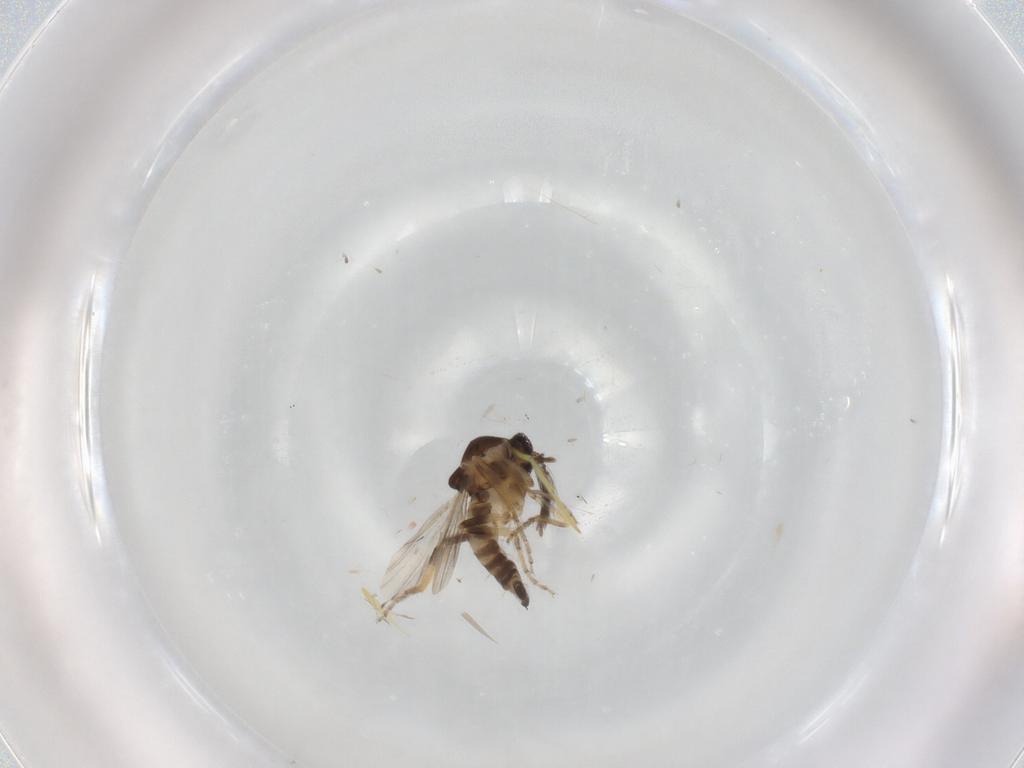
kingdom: Animalia
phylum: Arthropoda
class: Insecta
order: Diptera
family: Ceratopogonidae
